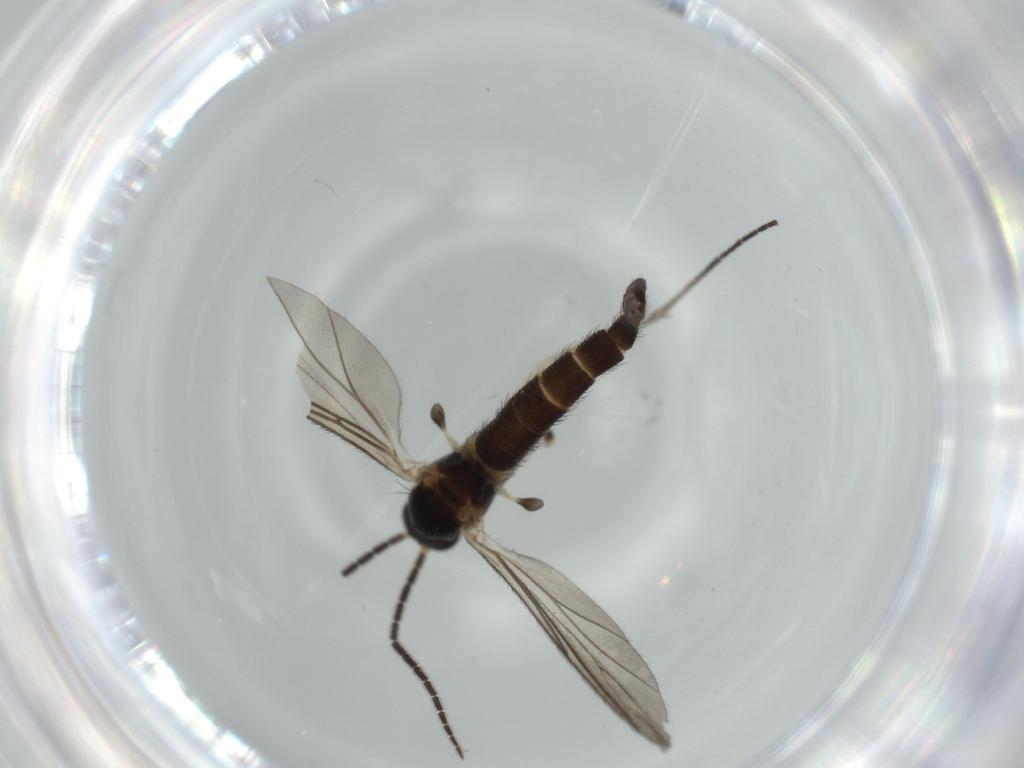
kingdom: Animalia
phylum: Arthropoda
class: Insecta
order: Diptera
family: Sciaridae
